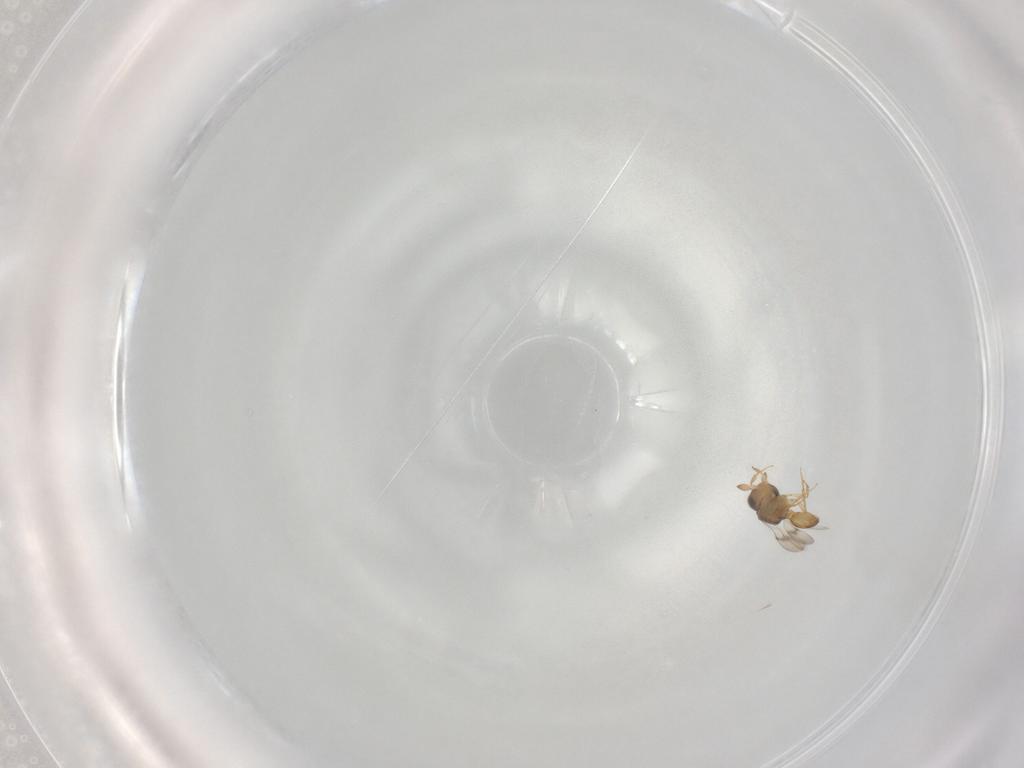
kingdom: Animalia
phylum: Arthropoda
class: Insecta
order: Hymenoptera
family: Scelionidae
